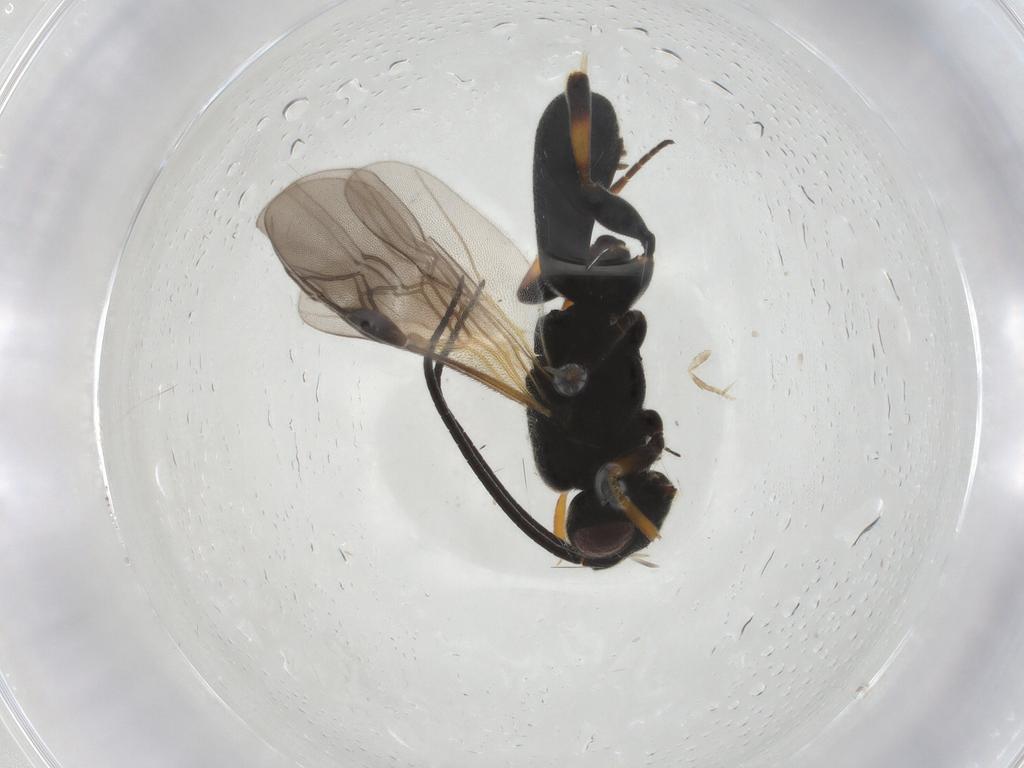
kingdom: Animalia
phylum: Arthropoda
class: Insecta
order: Hymenoptera
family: Braconidae
